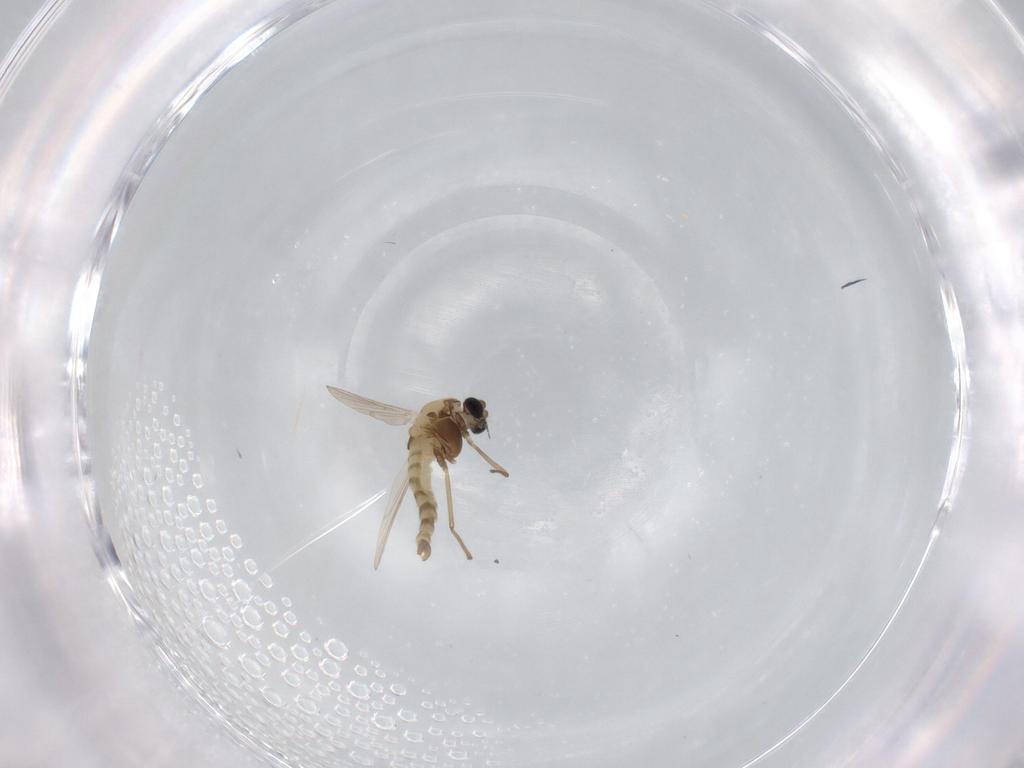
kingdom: Animalia
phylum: Arthropoda
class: Insecta
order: Diptera
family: Chironomidae
